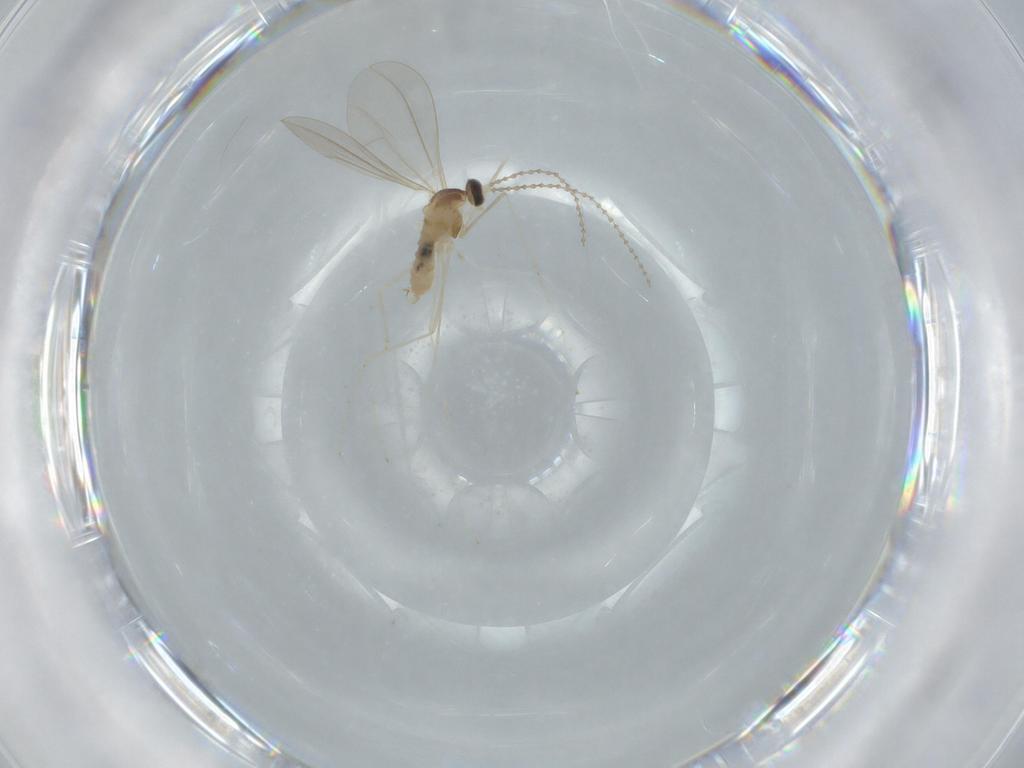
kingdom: Animalia
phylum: Arthropoda
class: Insecta
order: Diptera
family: Cecidomyiidae
